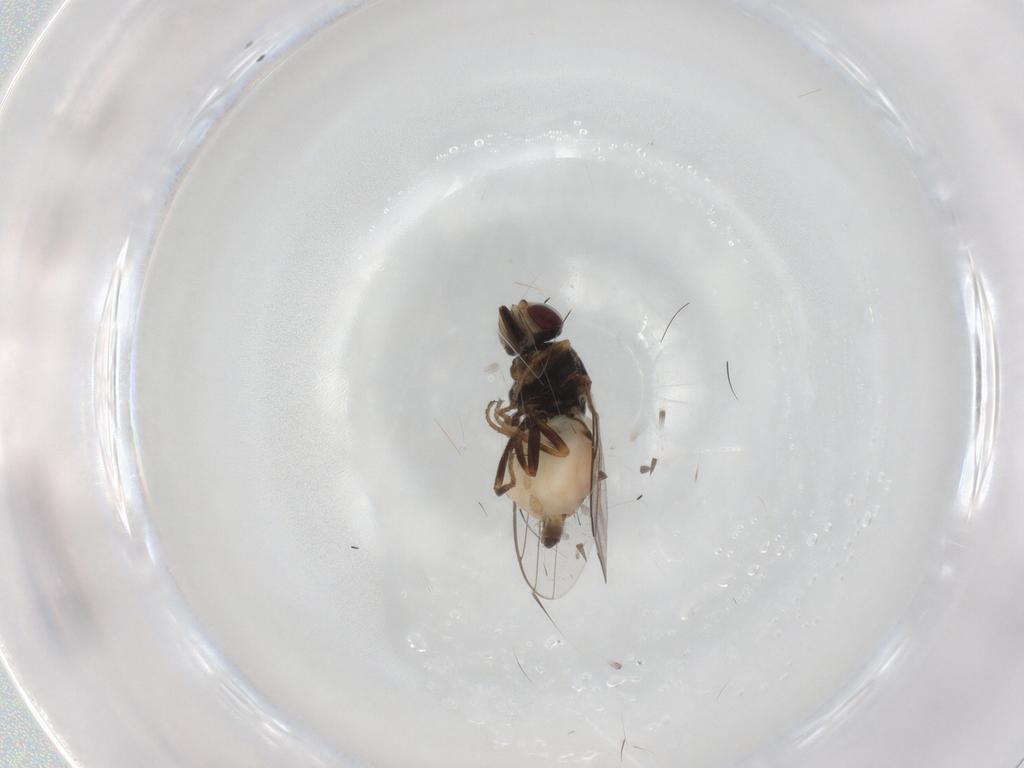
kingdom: Animalia
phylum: Arthropoda
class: Insecta
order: Diptera
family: Chloropidae
